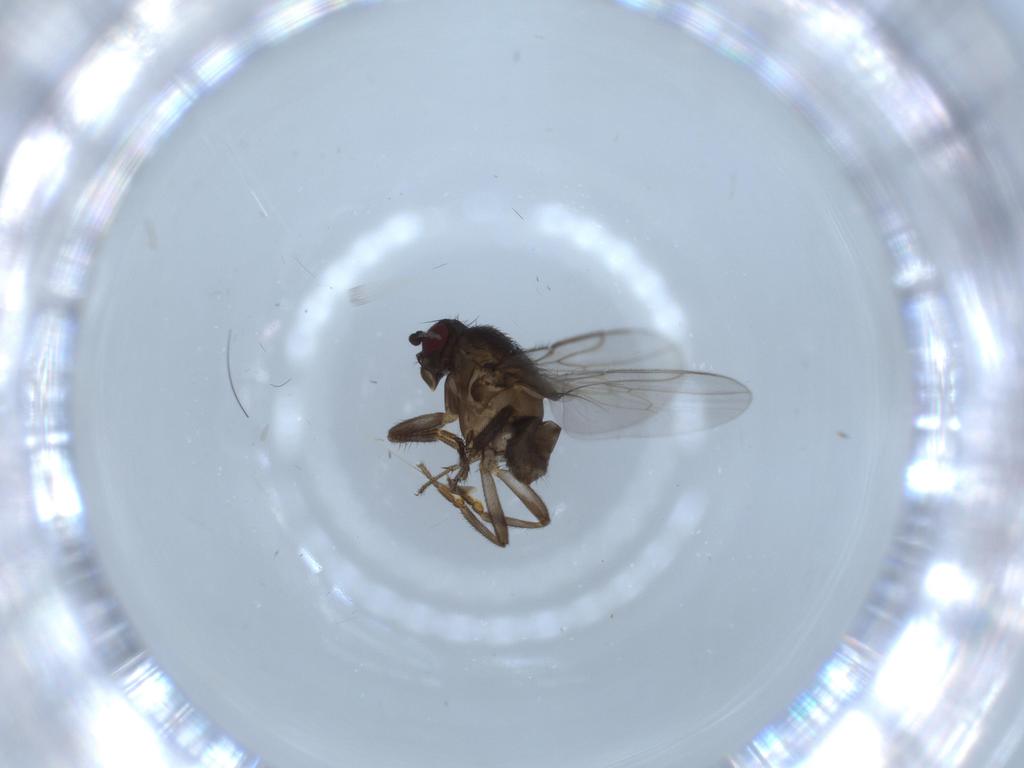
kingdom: Animalia
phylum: Arthropoda
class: Insecta
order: Diptera
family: Sphaeroceridae
